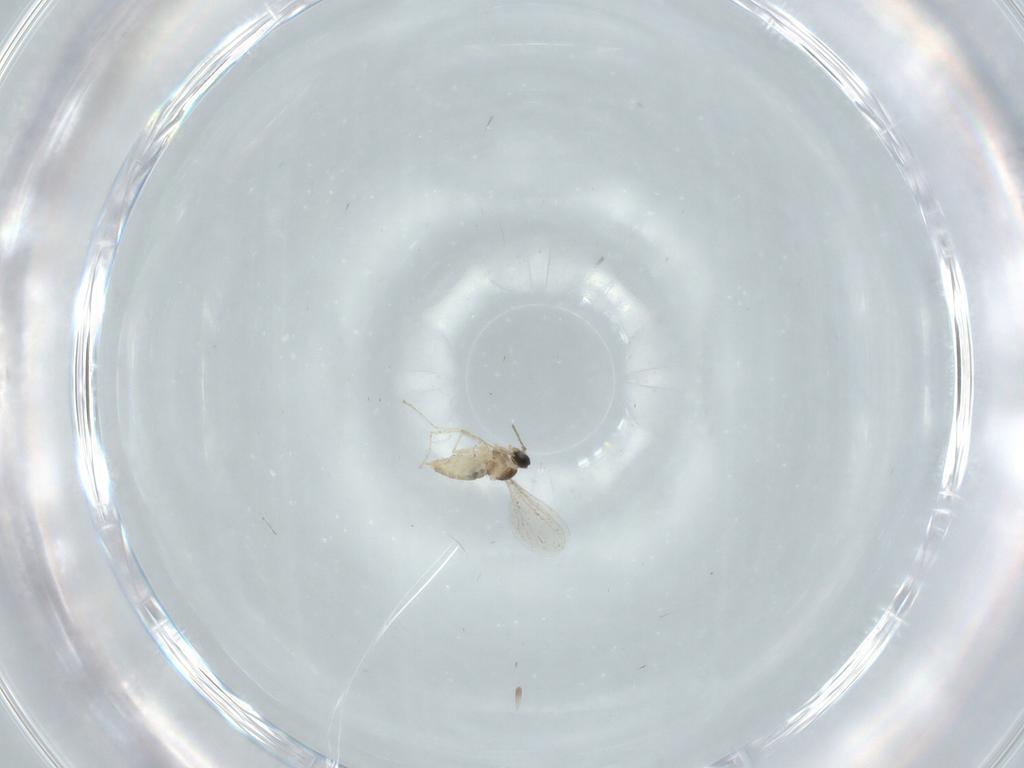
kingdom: Animalia
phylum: Arthropoda
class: Insecta
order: Diptera
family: Cecidomyiidae
